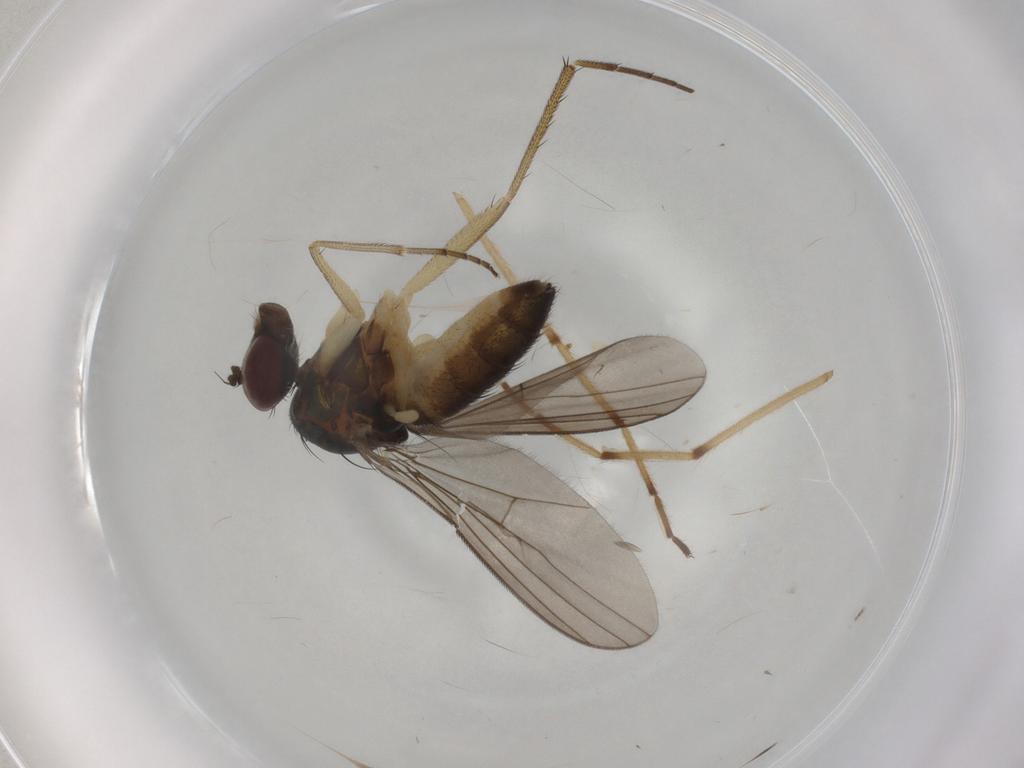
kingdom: Animalia
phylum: Arthropoda
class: Insecta
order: Diptera
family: Dolichopodidae
